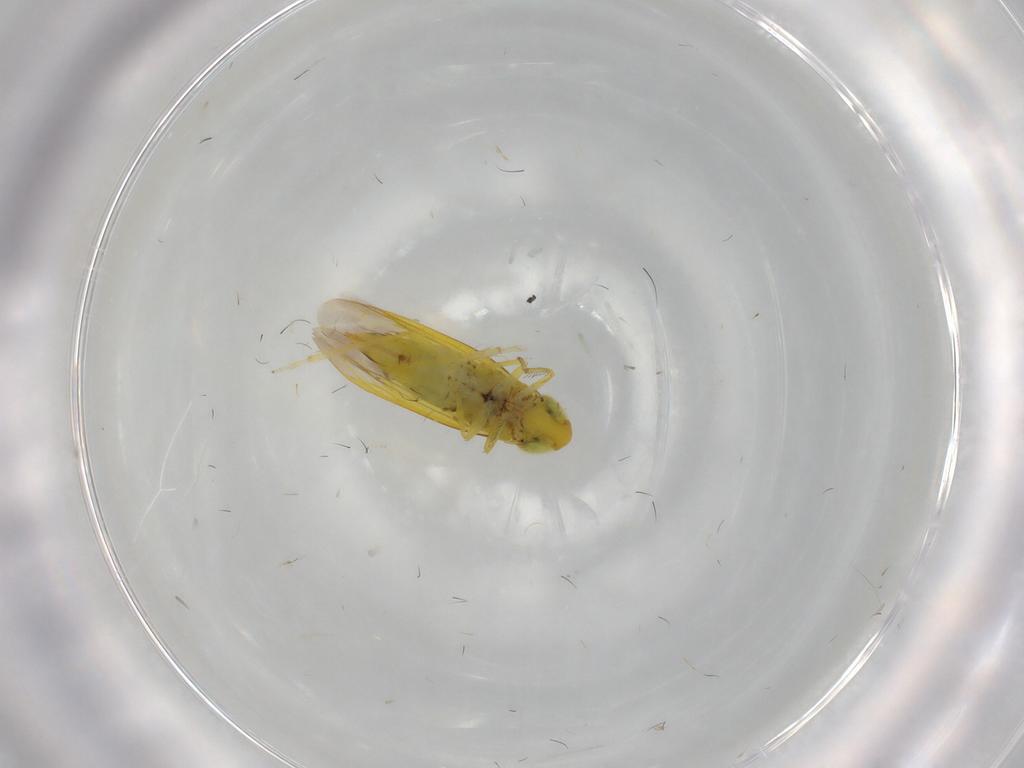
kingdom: Animalia
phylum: Arthropoda
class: Insecta
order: Hemiptera
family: Cicadellidae
